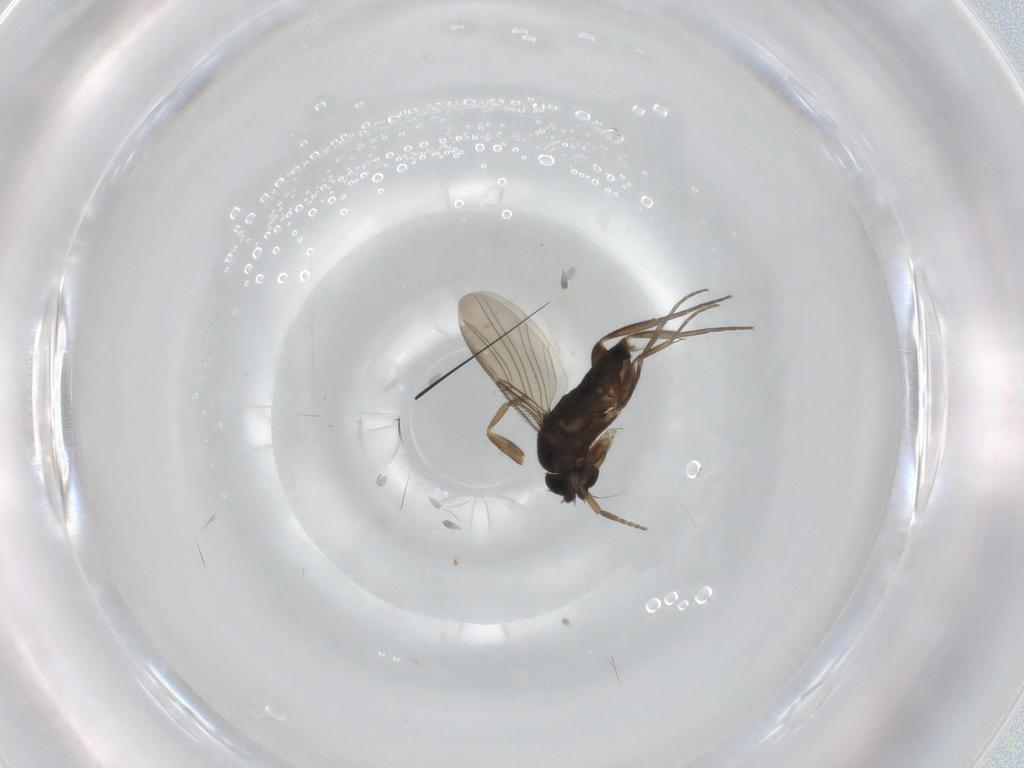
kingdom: Animalia
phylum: Arthropoda
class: Insecta
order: Diptera
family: Phoridae
